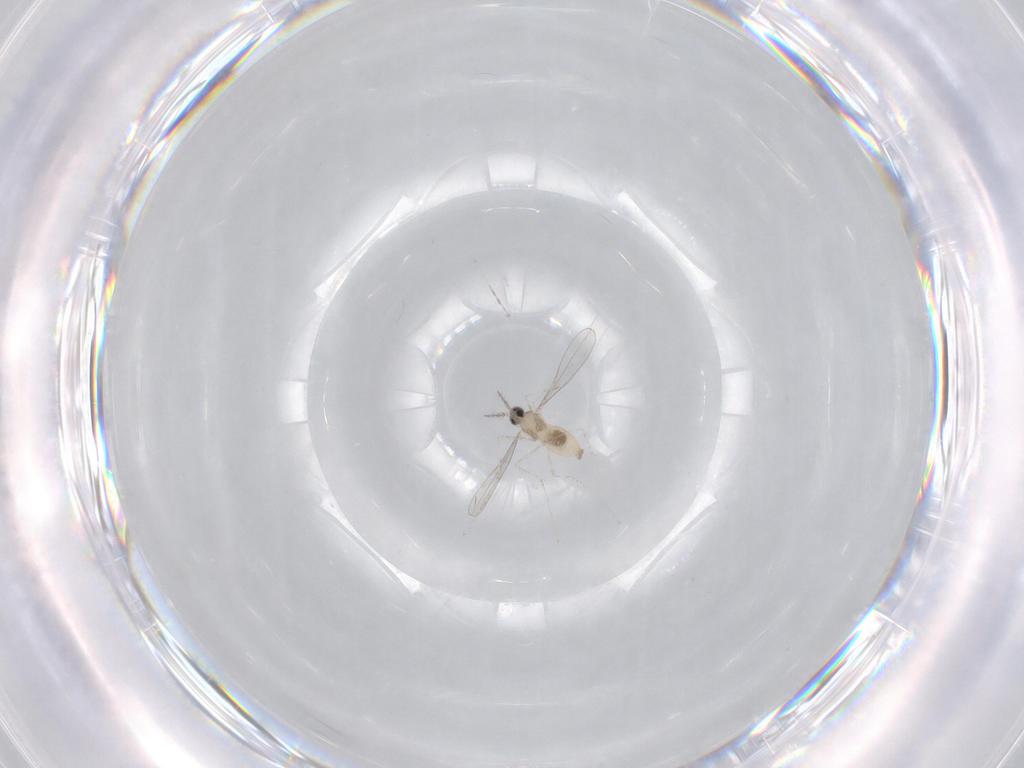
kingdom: Animalia
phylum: Arthropoda
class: Insecta
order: Diptera
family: Cecidomyiidae
